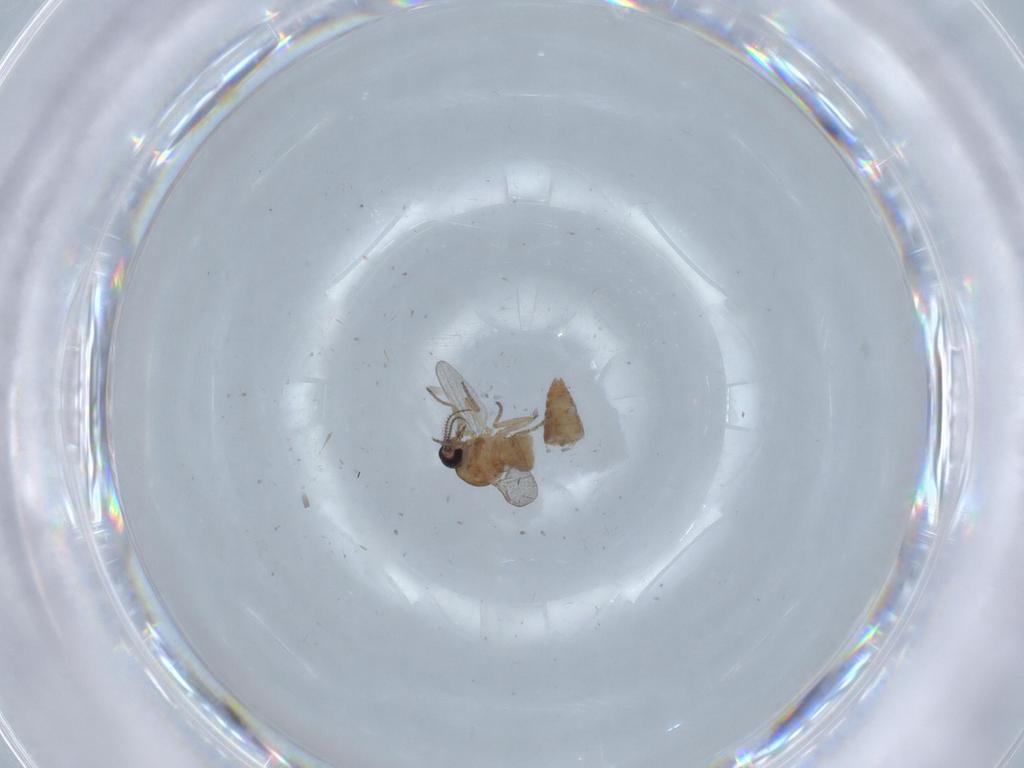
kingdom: Animalia
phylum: Arthropoda
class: Insecta
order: Diptera
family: Ceratopogonidae
